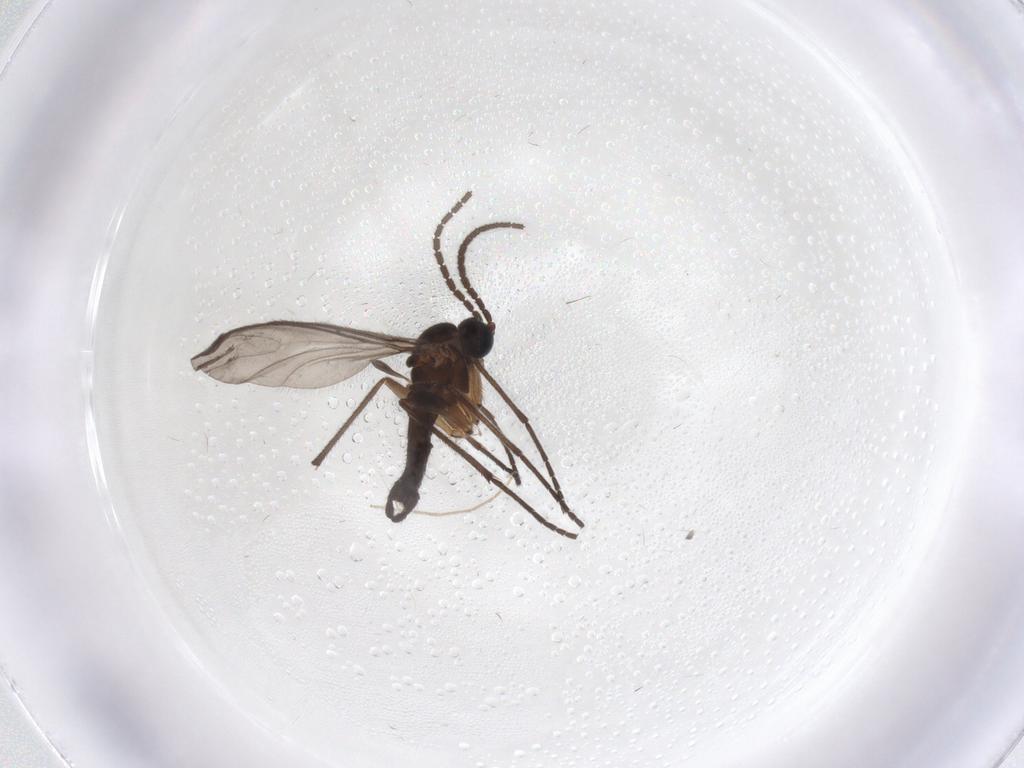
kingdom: Animalia
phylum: Arthropoda
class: Insecta
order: Diptera
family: Sciaridae
